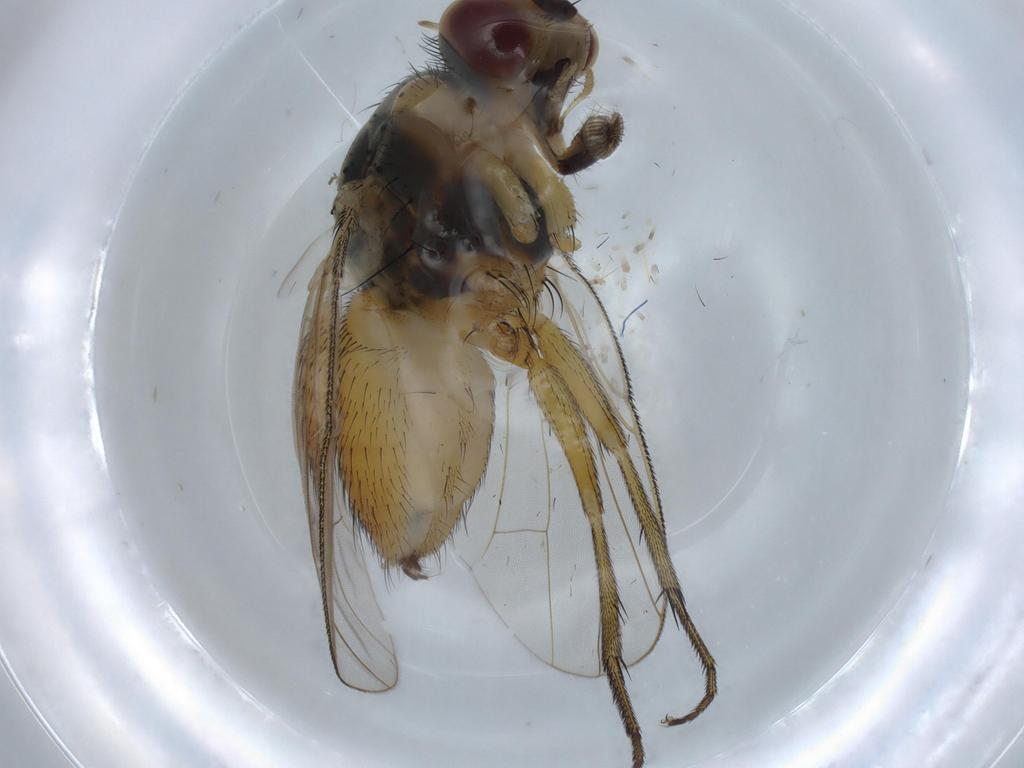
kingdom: Animalia
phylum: Arthropoda
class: Insecta
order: Diptera
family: Muscidae
